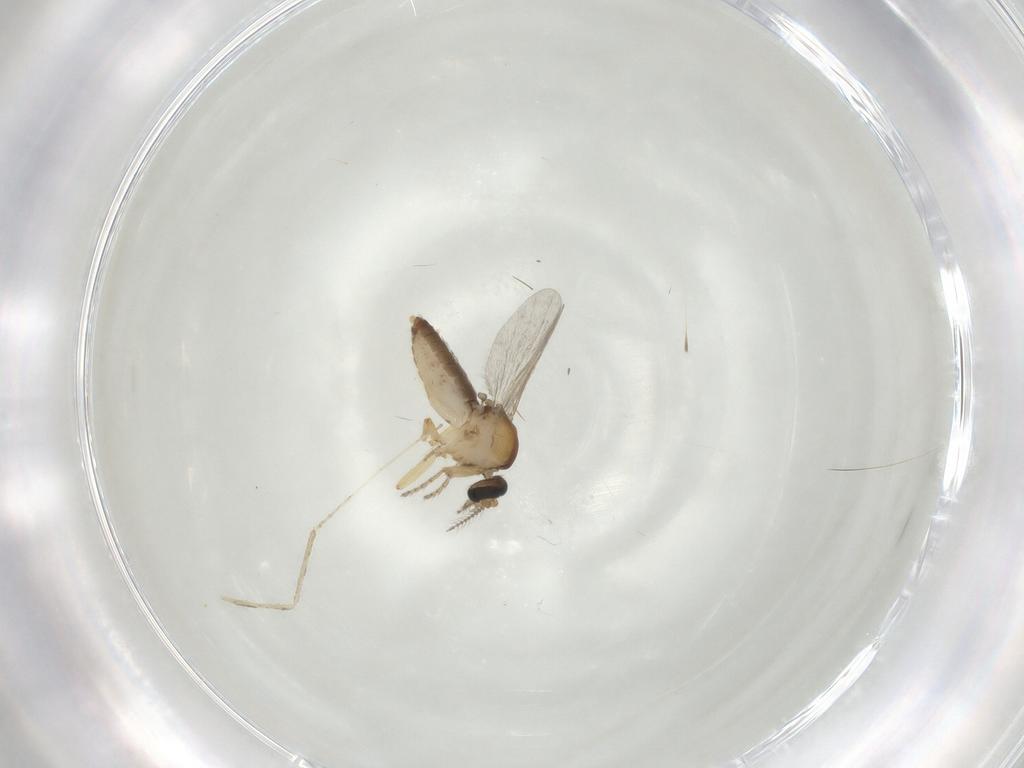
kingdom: Animalia
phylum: Arthropoda
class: Insecta
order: Diptera
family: Ceratopogonidae
